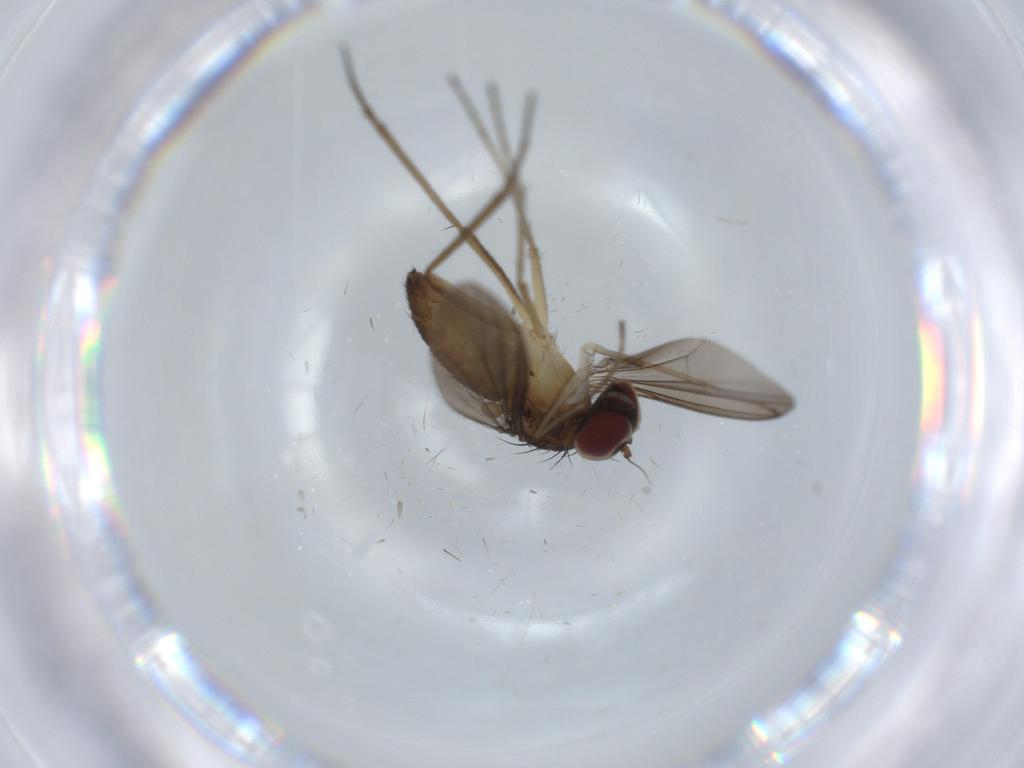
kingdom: Animalia
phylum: Arthropoda
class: Insecta
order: Diptera
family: Dolichopodidae
